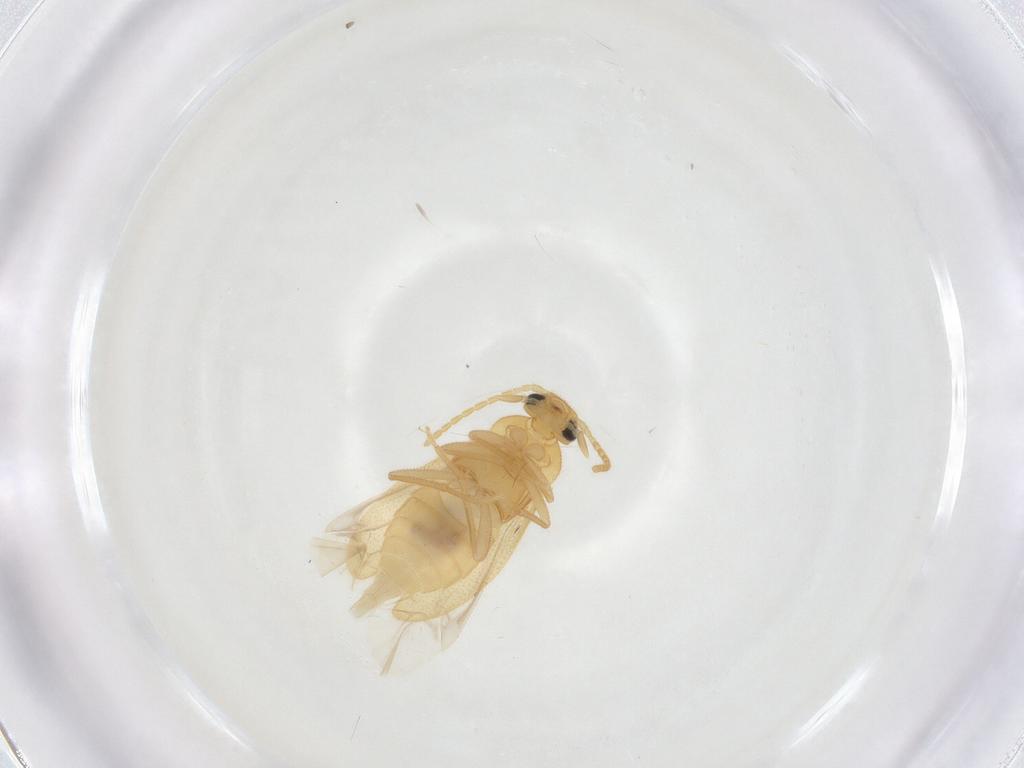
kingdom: Animalia
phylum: Arthropoda
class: Insecta
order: Coleoptera
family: Scraptiidae
